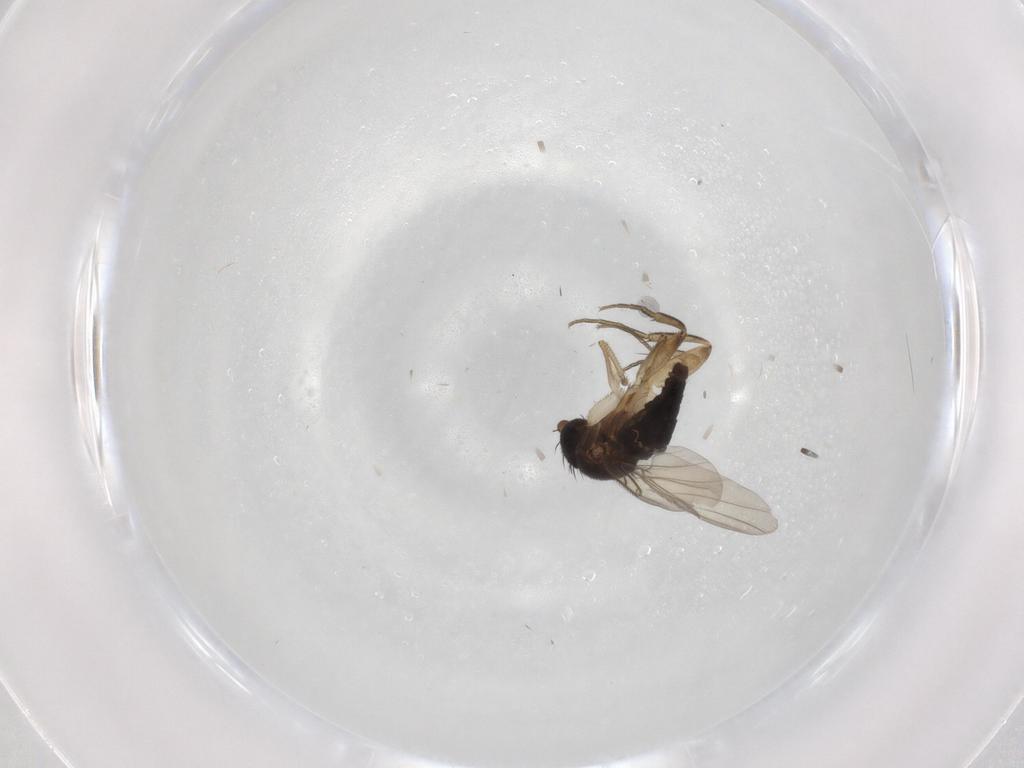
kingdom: Animalia
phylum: Arthropoda
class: Insecta
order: Diptera
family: Phoridae
